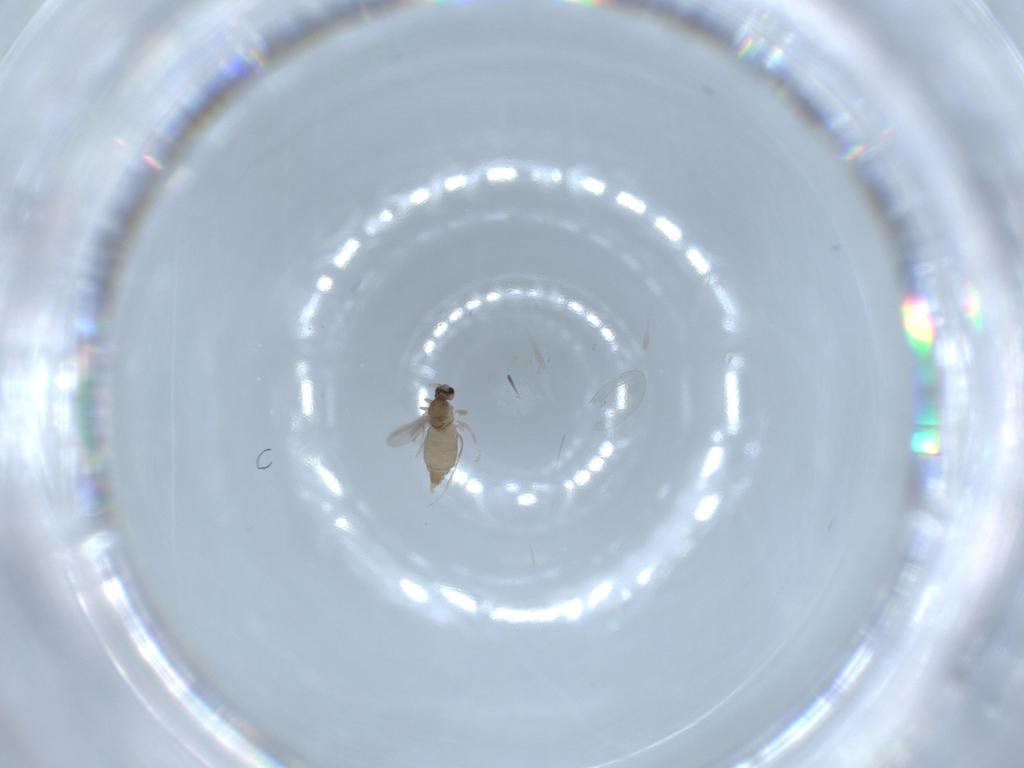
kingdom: Animalia
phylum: Arthropoda
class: Insecta
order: Diptera
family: Cecidomyiidae
